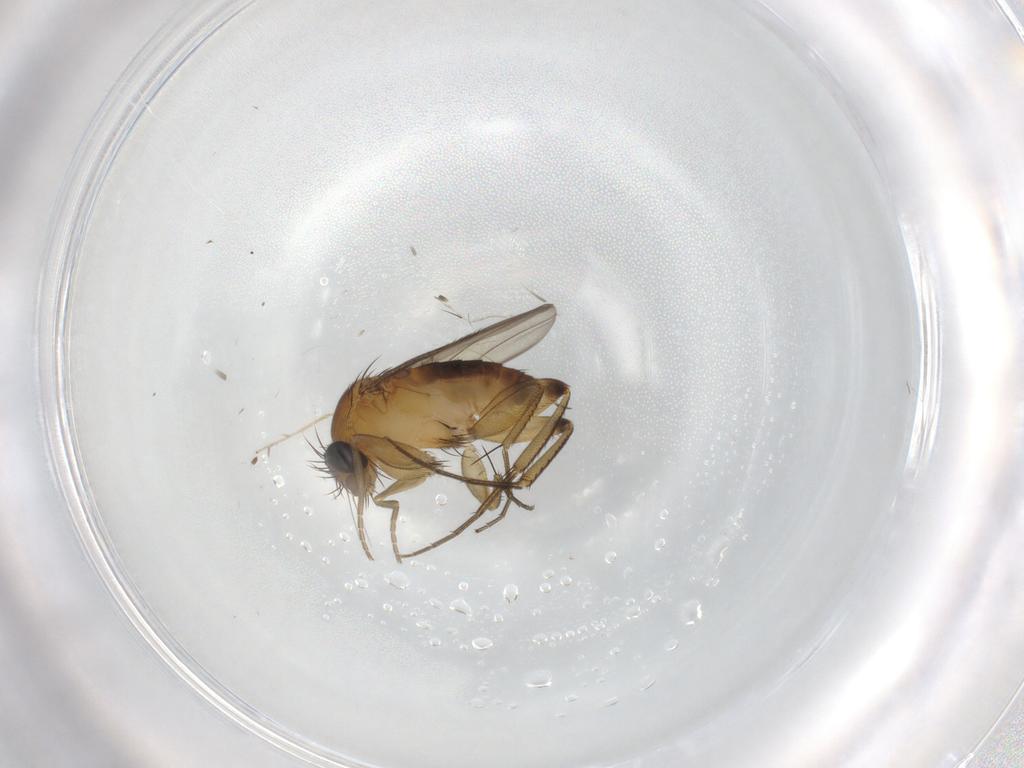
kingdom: Animalia
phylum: Arthropoda
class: Insecta
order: Diptera
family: Phoridae
